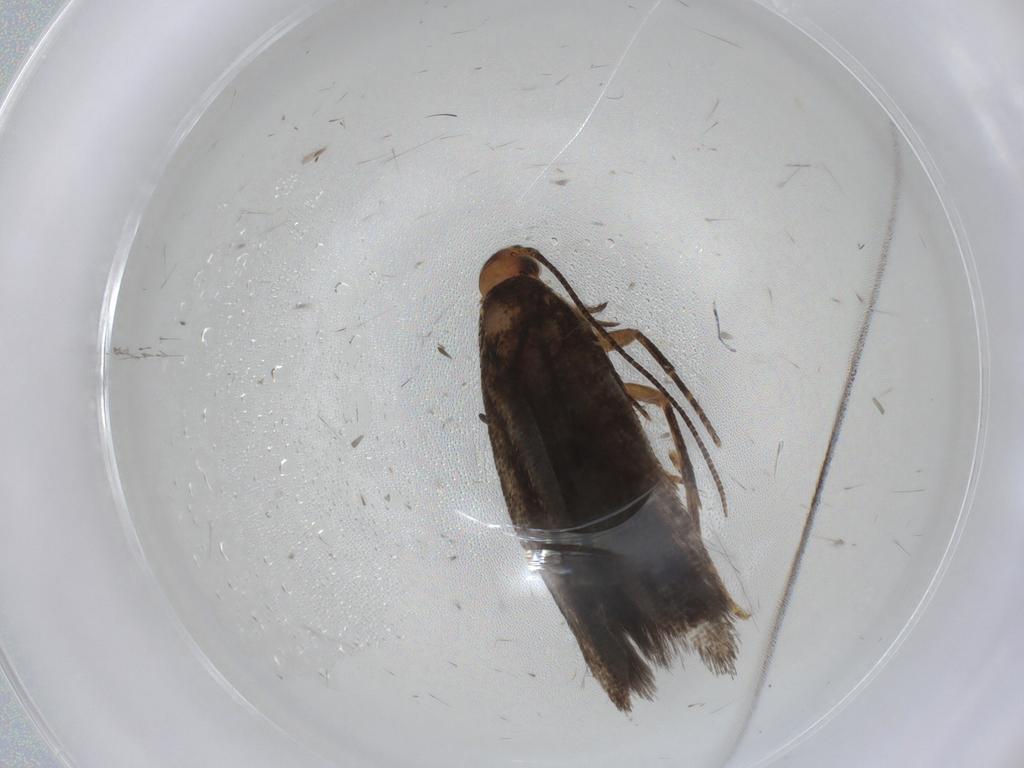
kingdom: Animalia
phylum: Arthropoda
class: Insecta
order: Lepidoptera
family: Gelechiidae
